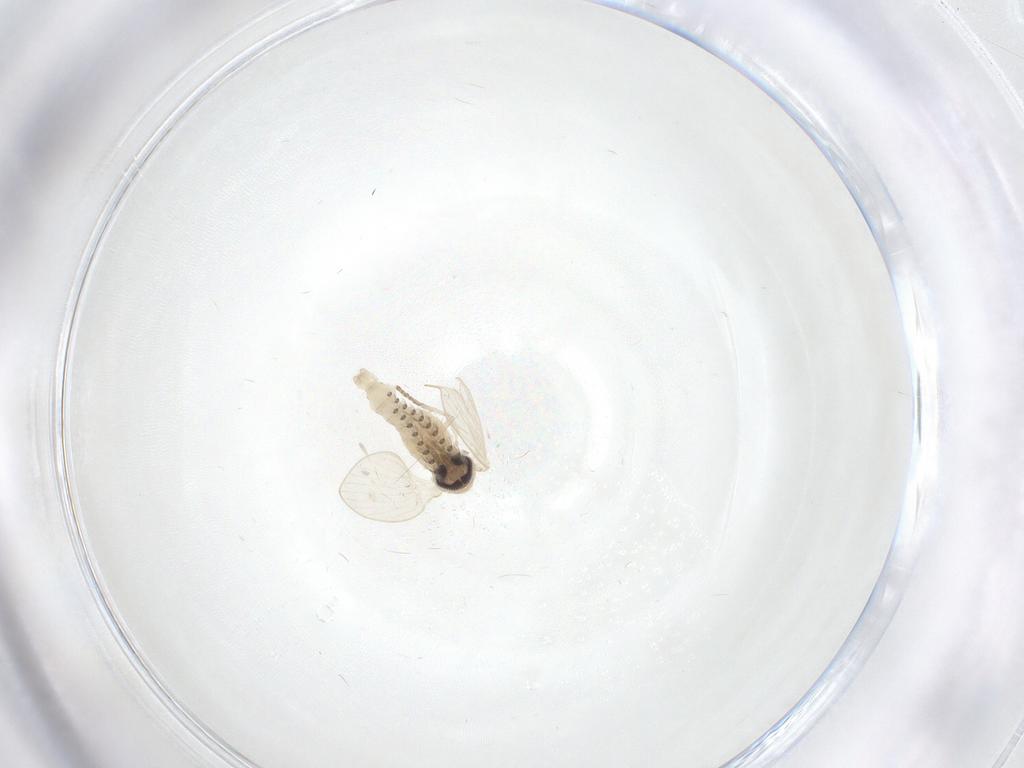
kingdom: Animalia
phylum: Arthropoda
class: Insecta
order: Diptera
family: Psychodidae
